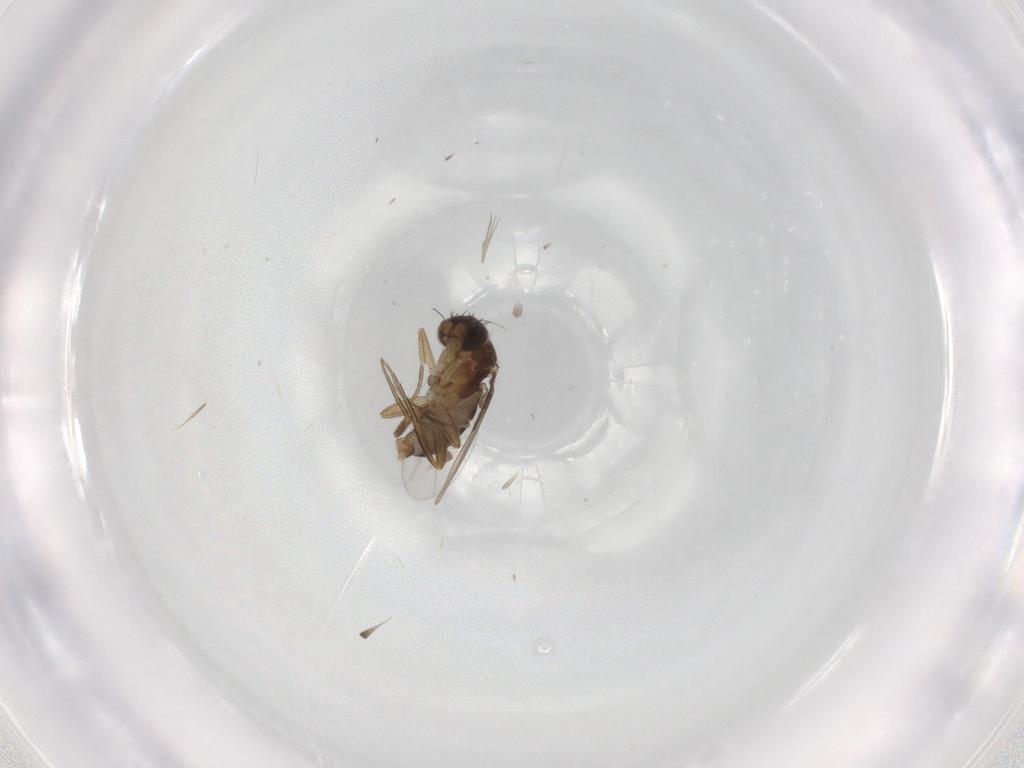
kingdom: Animalia
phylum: Arthropoda
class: Insecta
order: Diptera
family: Phoridae
